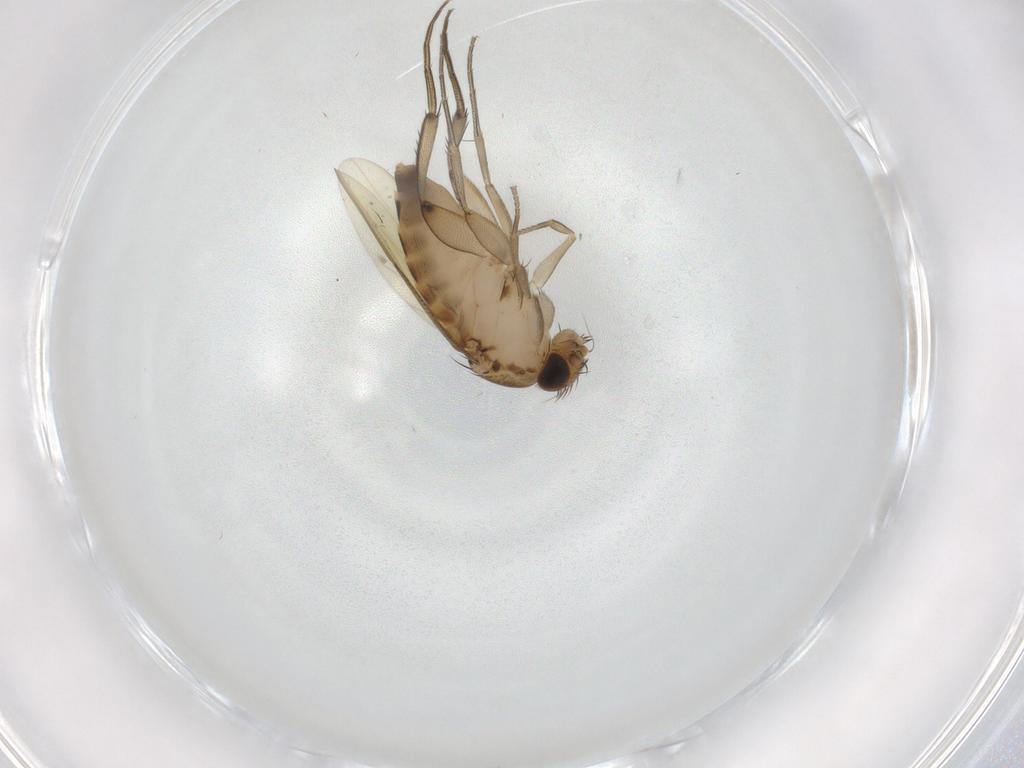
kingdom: Animalia
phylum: Arthropoda
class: Insecta
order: Diptera
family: Phoridae
